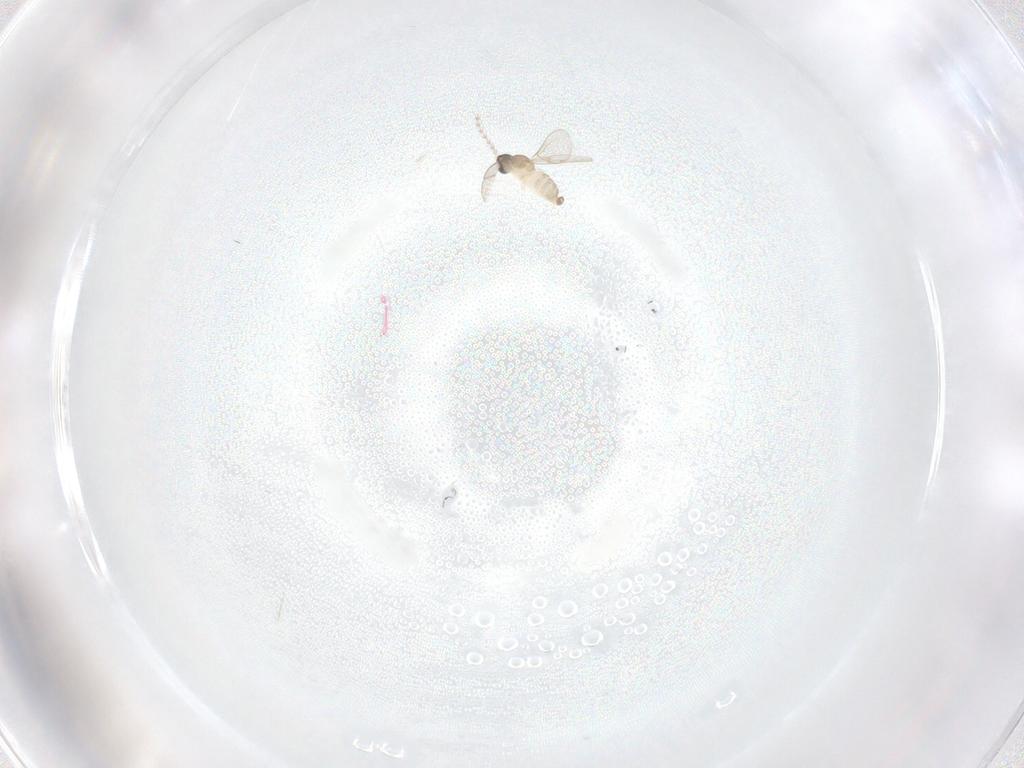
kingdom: Animalia
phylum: Arthropoda
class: Insecta
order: Diptera
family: Cecidomyiidae
